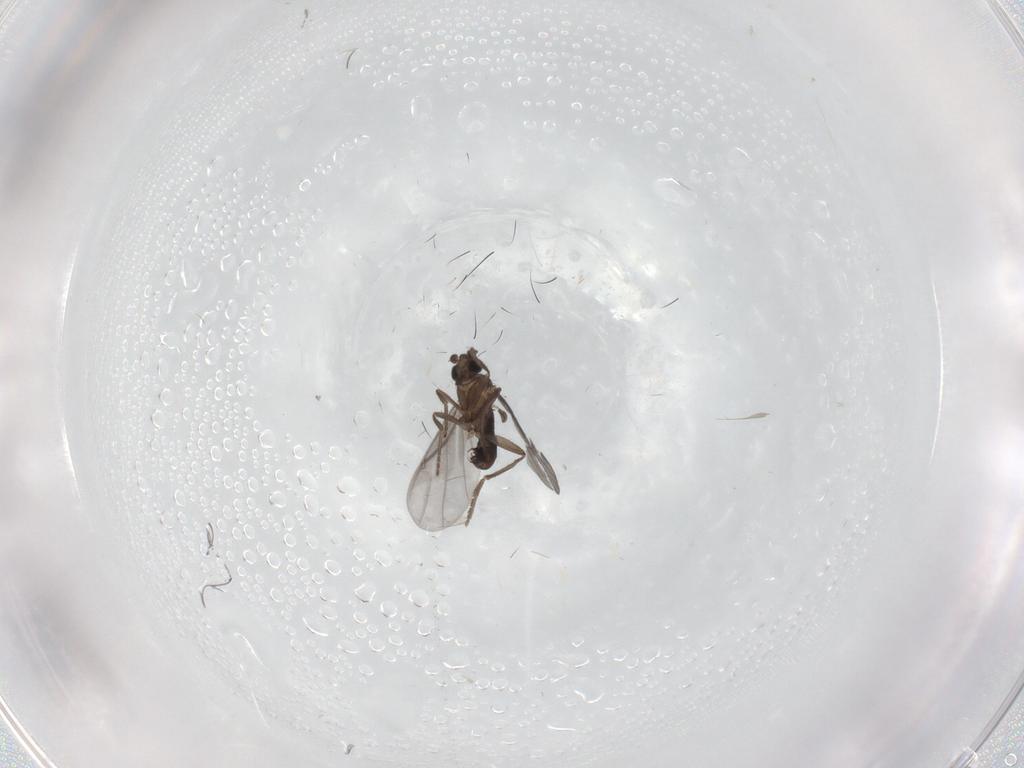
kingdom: Animalia
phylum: Arthropoda
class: Insecta
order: Diptera
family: Phoridae
